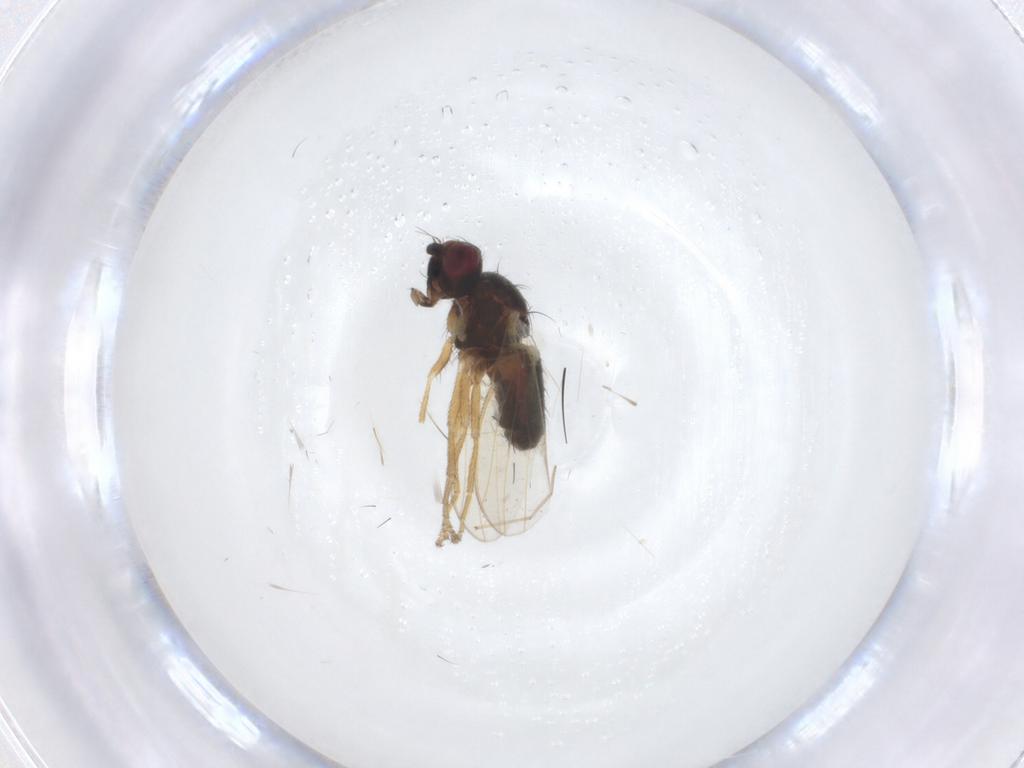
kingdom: Animalia
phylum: Arthropoda
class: Insecta
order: Diptera
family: Heleomyzidae
